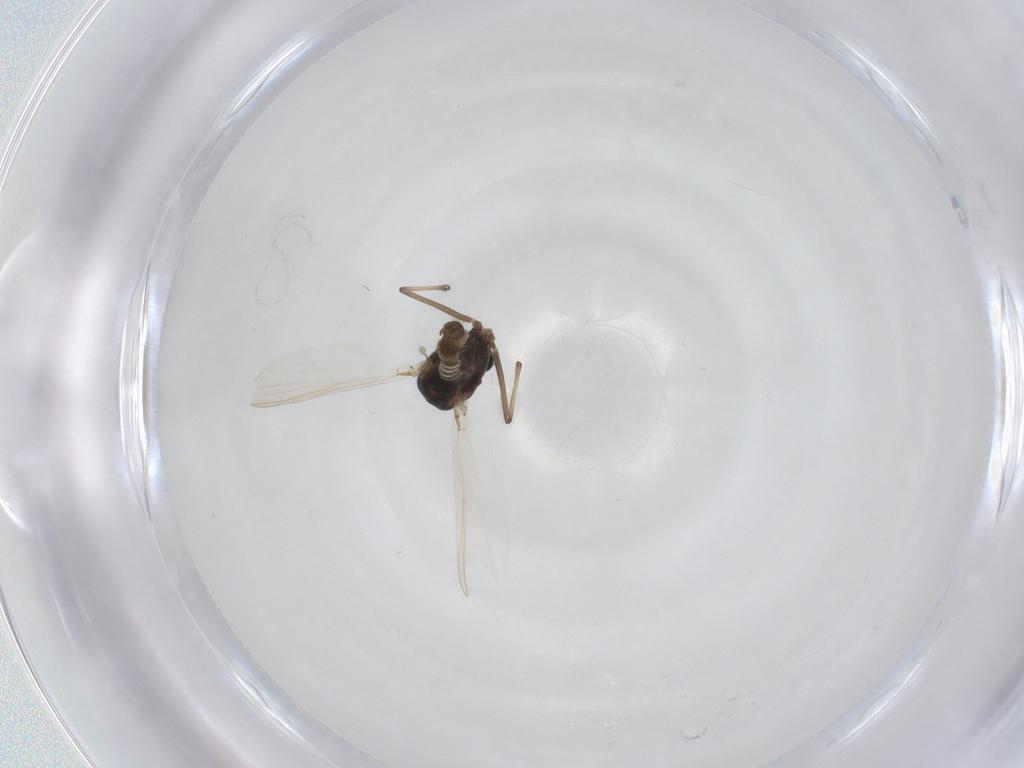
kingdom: Animalia
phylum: Arthropoda
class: Insecta
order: Diptera
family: Chironomidae
